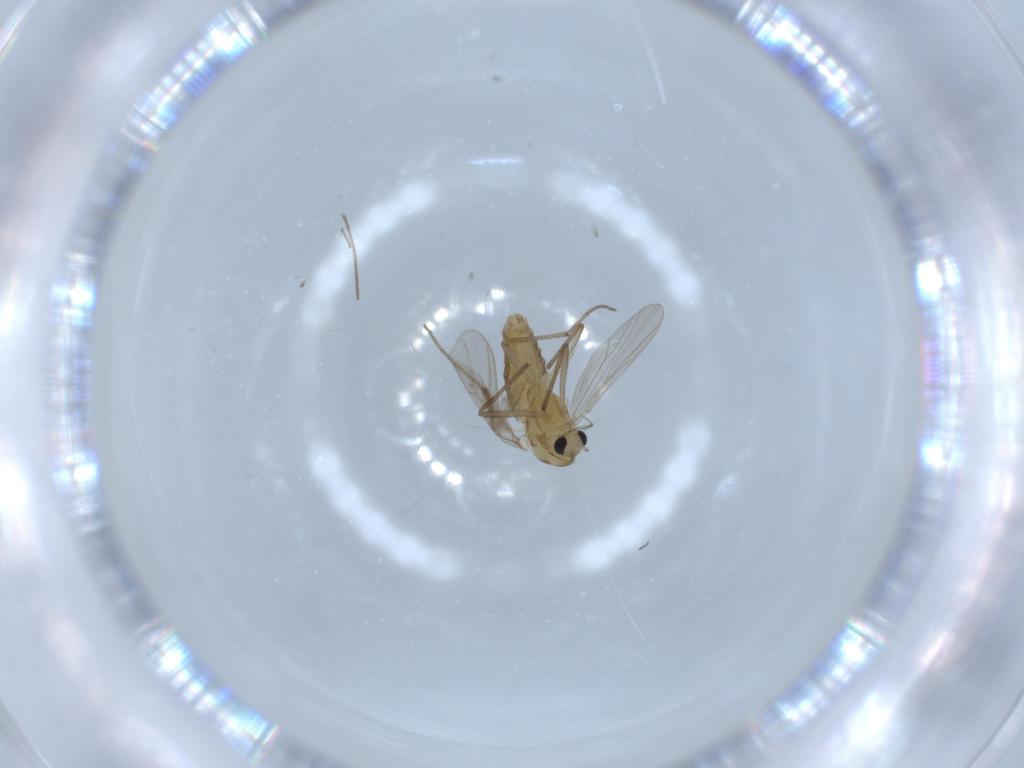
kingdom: Animalia
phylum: Arthropoda
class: Insecta
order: Diptera
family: Chironomidae
